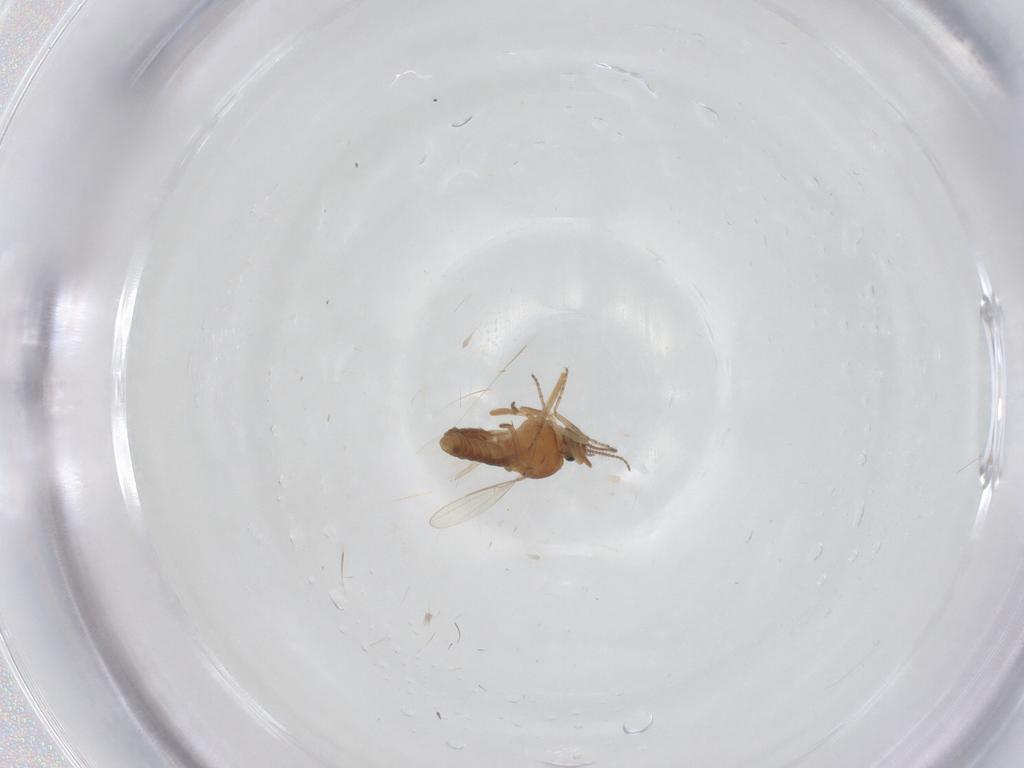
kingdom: Animalia
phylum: Arthropoda
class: Insecta
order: Diptera
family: Ceratopogonidae
